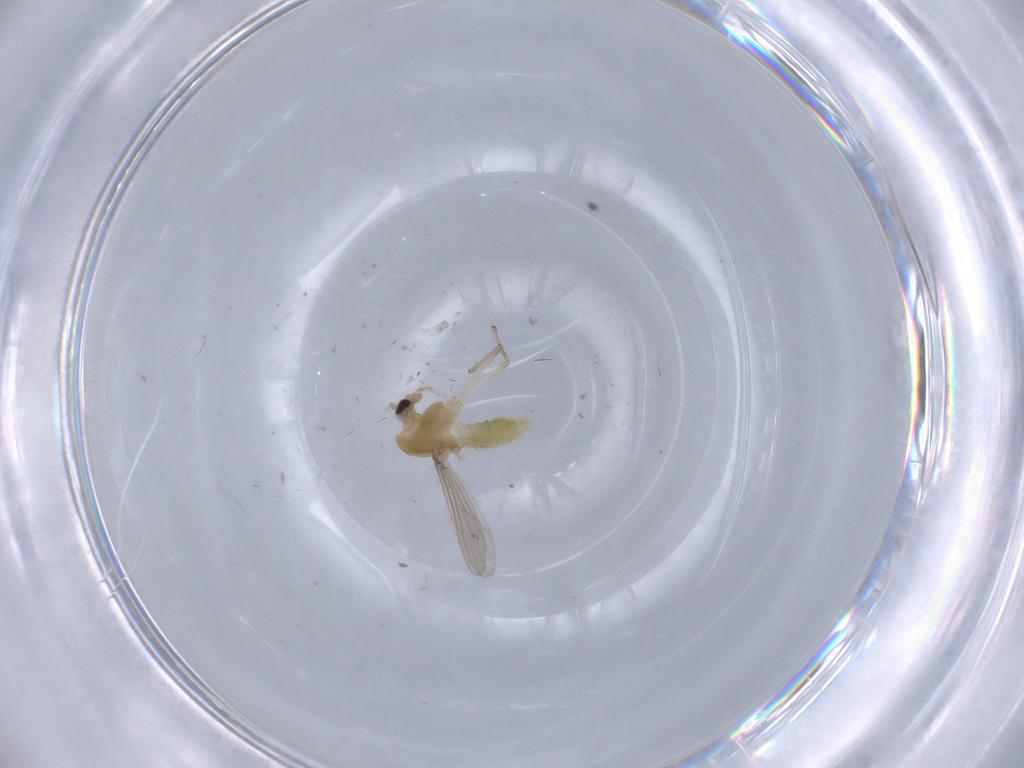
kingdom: Animalia
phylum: Arthropoda
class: Insecta
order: Diptera
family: Chironomidae
